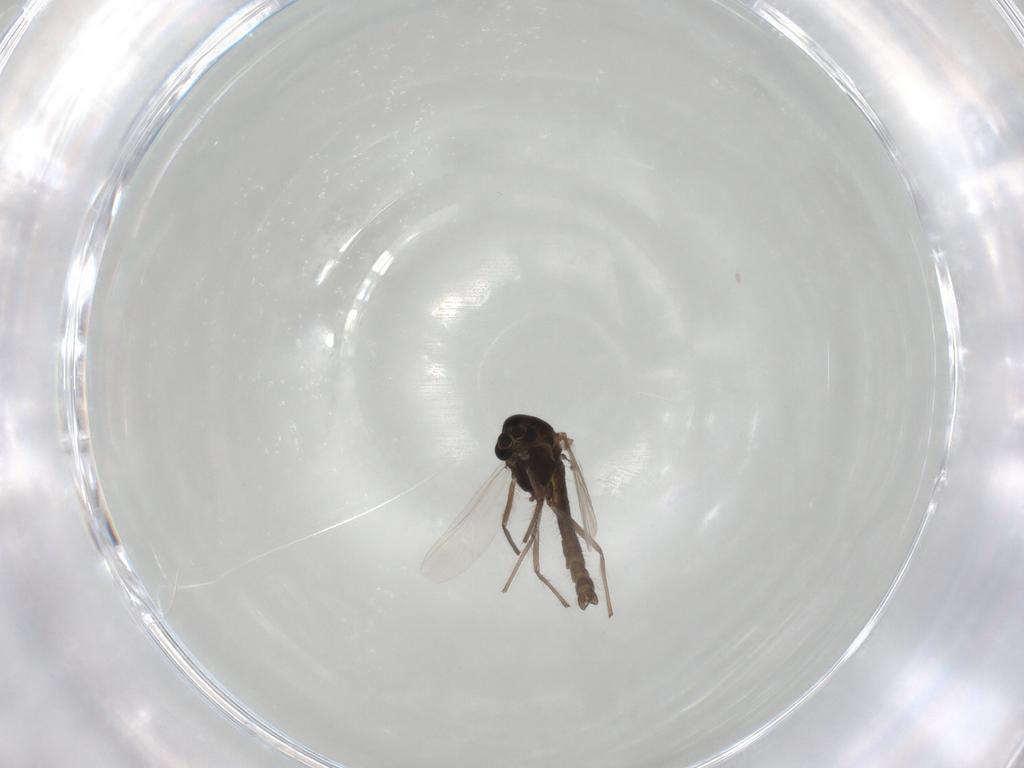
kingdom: Animalia
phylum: Arthropoda
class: Insecta
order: Diptera
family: Chironomidae
